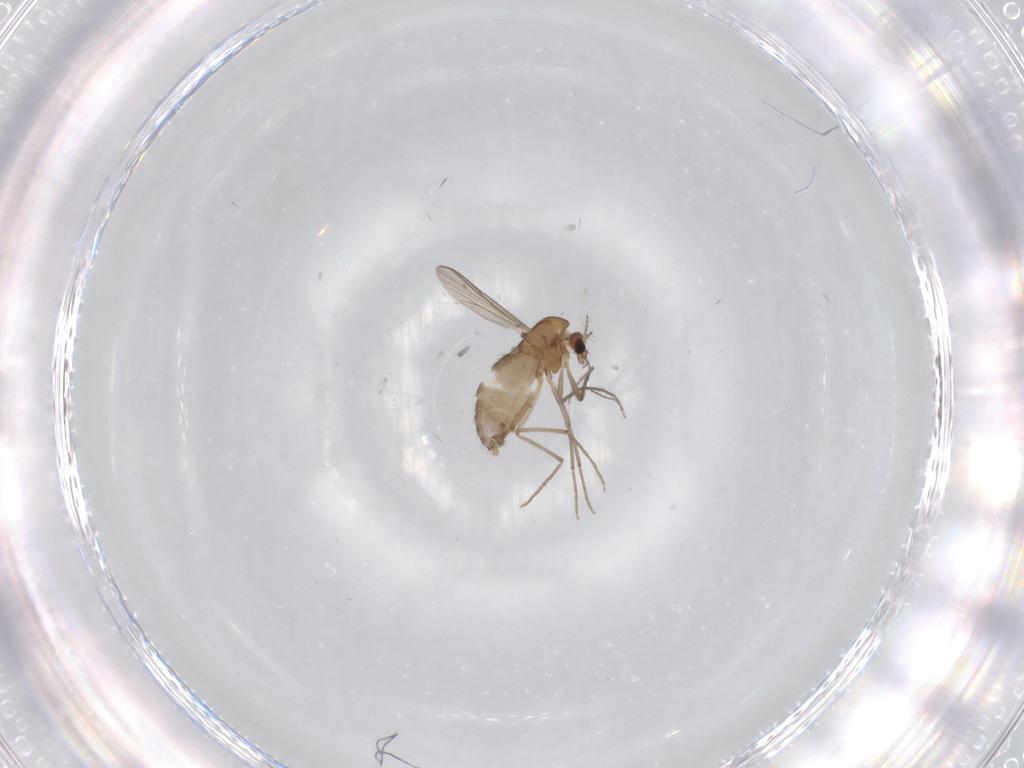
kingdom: Animalia
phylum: Arthropoda
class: Insecta
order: Diptera
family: Chironomidae
